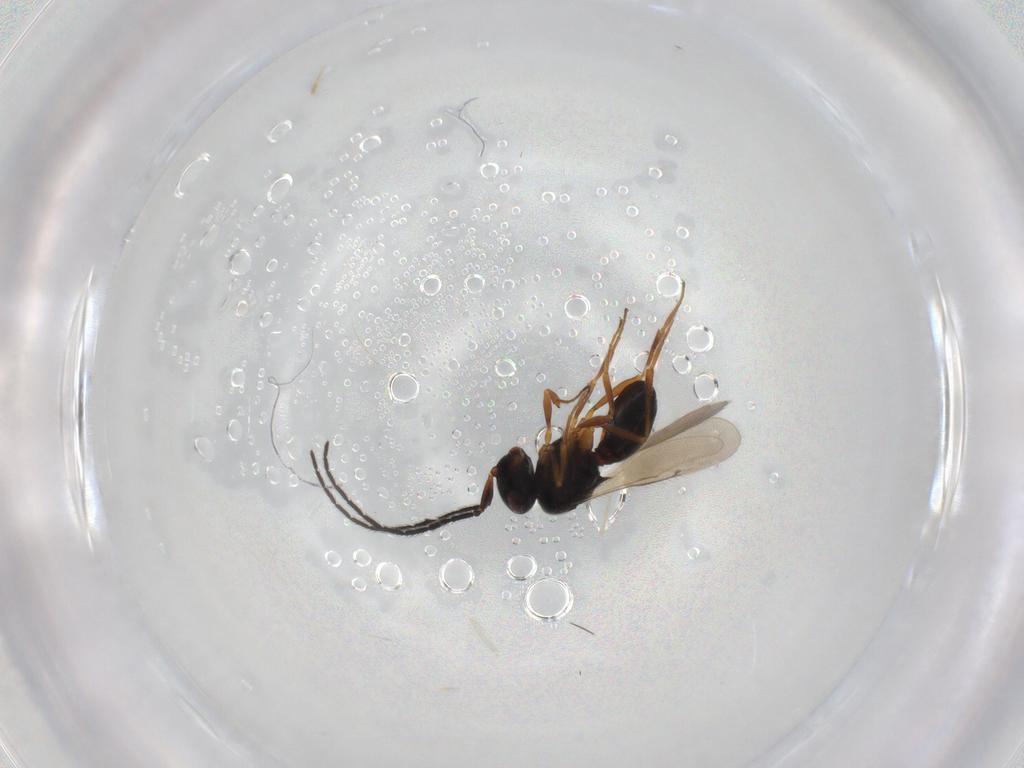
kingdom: Animalia
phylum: Arthropoda
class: Insecta
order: Hymenoptera
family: Scelionidae
